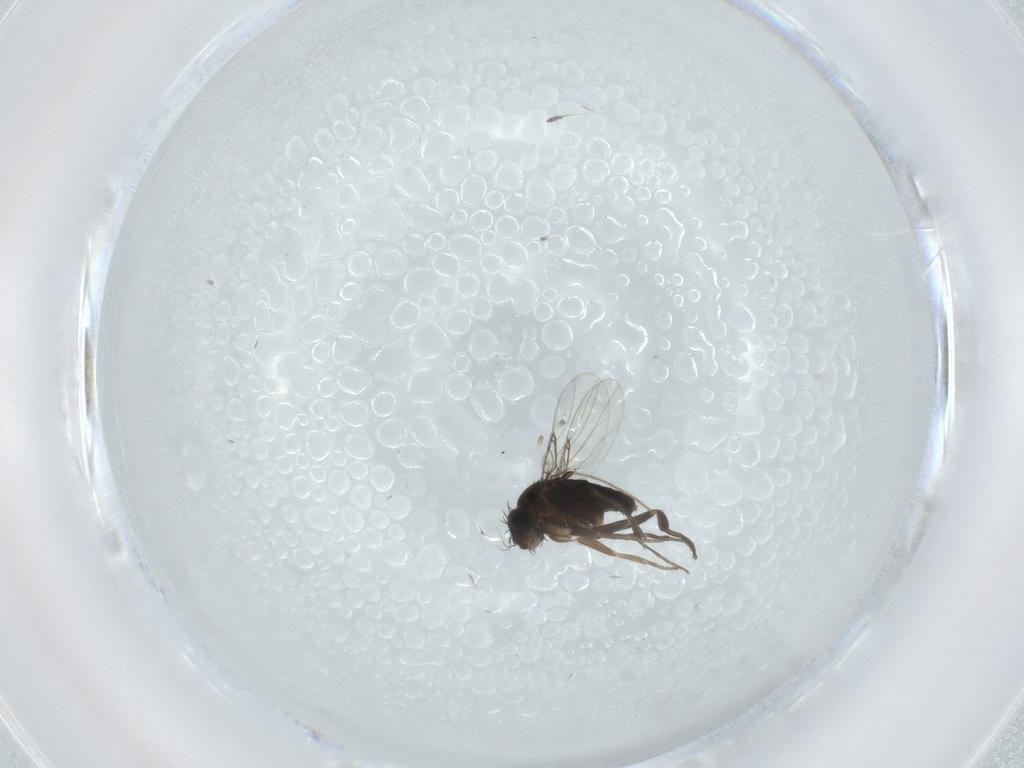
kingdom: Animalia
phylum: Arthropoda
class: Insecta
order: Diptera
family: Phoridae
